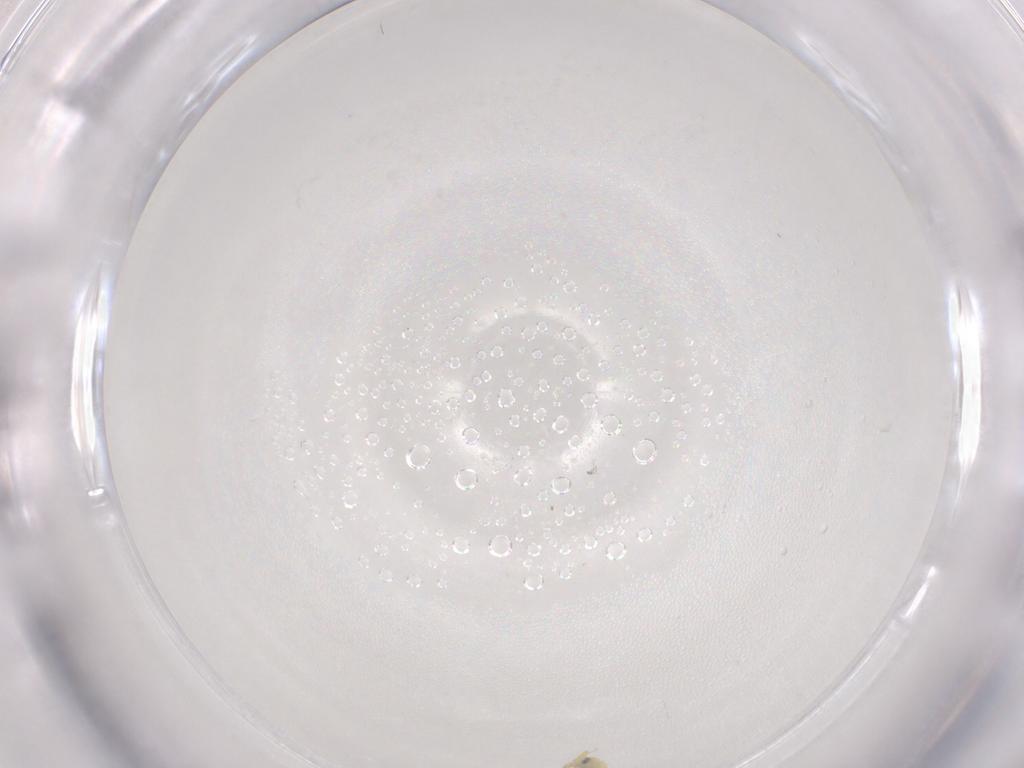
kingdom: Animalia
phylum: Arthropoda
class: Insecta
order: Hemiptera
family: Aleyrodidae
